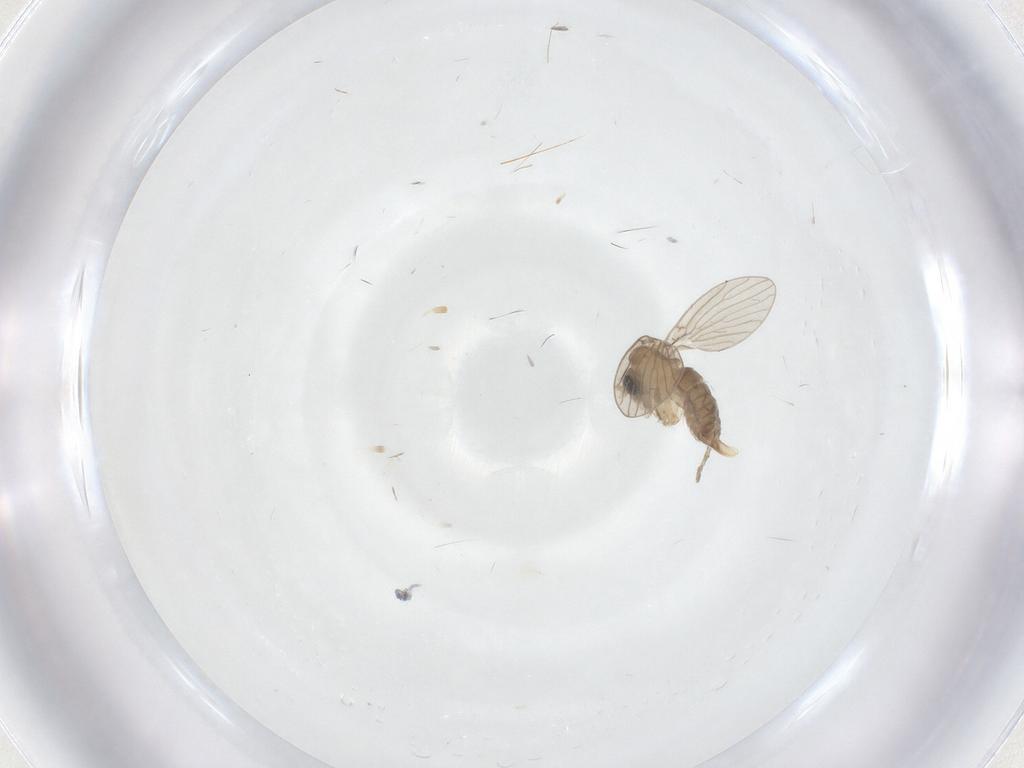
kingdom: Animalia
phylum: Arthropoda
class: Insecta
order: Diptera
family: Psychodidae
